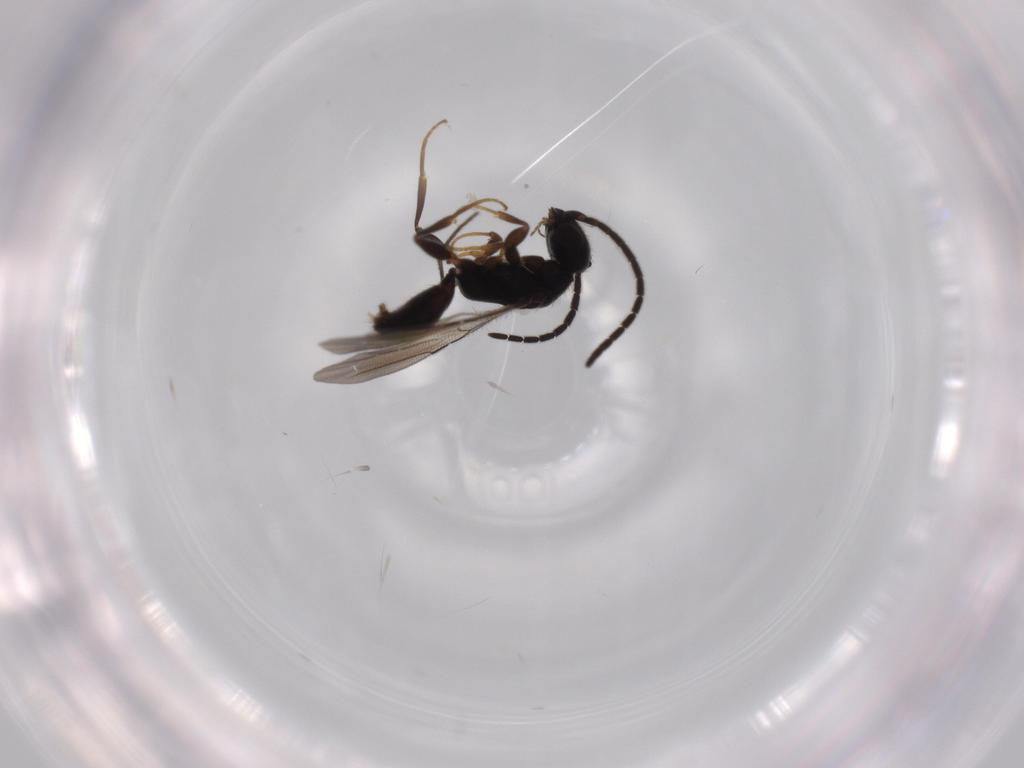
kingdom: Animalia
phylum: Arthropoda
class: Insecta
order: Hymenoptera
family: Bethylidae
